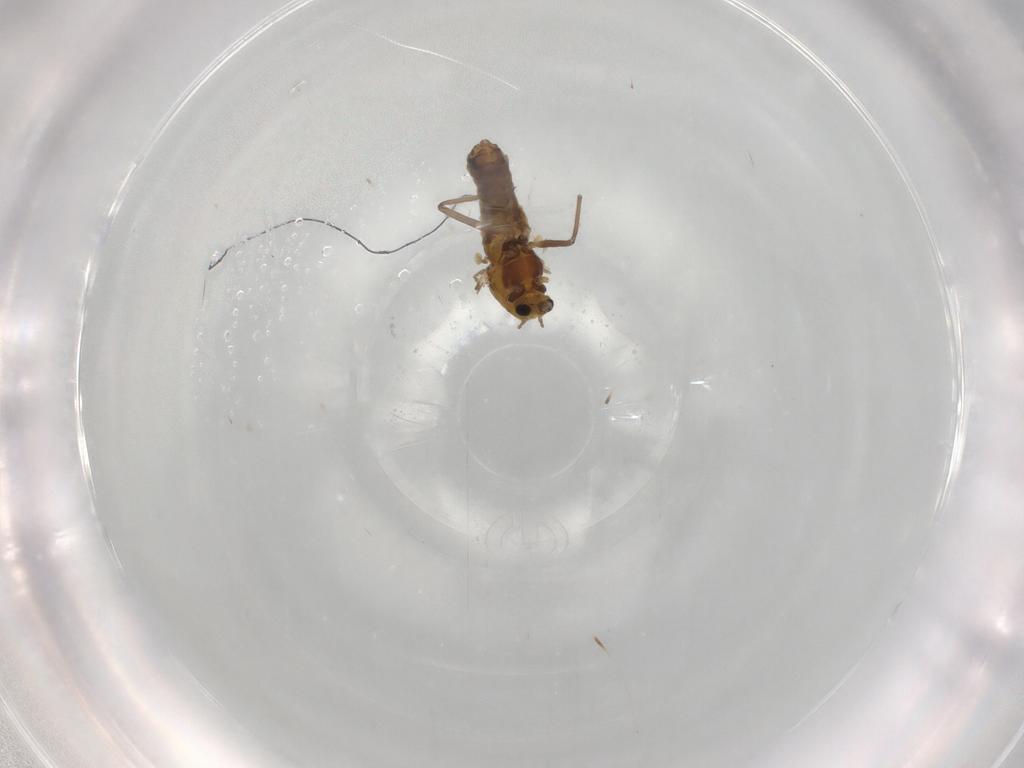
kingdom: Animalia
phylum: Arthropoda
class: Insecta
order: Diptera
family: Chironomidae
